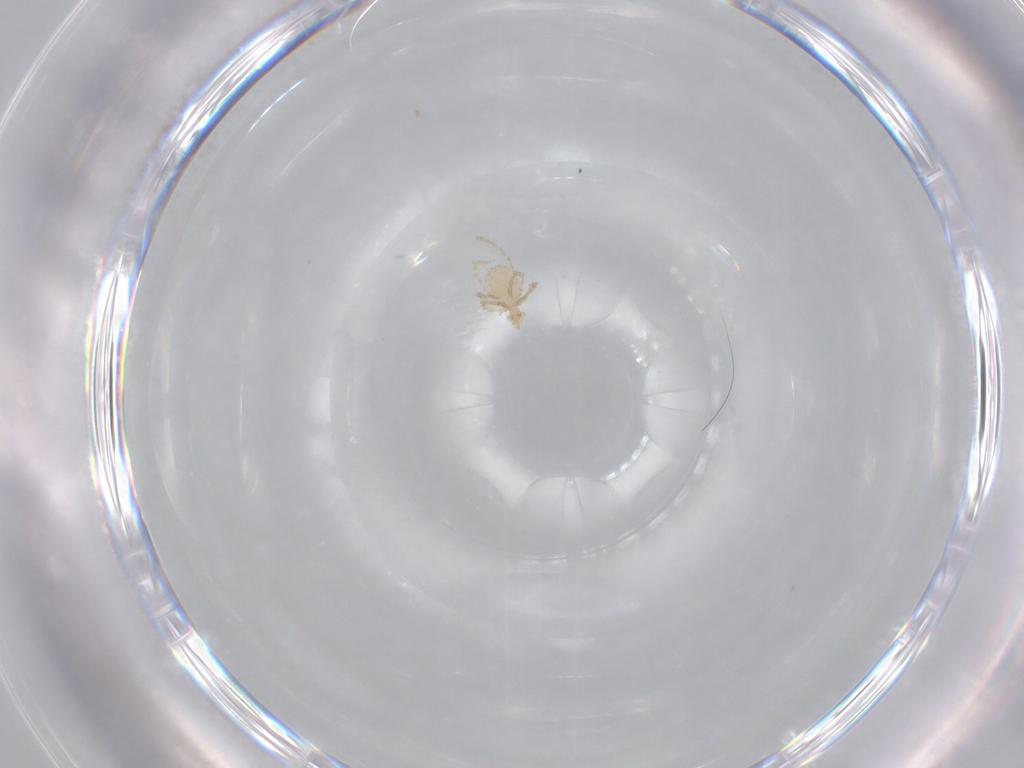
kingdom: Animalia
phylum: Arthropoda
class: Arachnida
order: Trombidiformes
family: Erythraeidae
